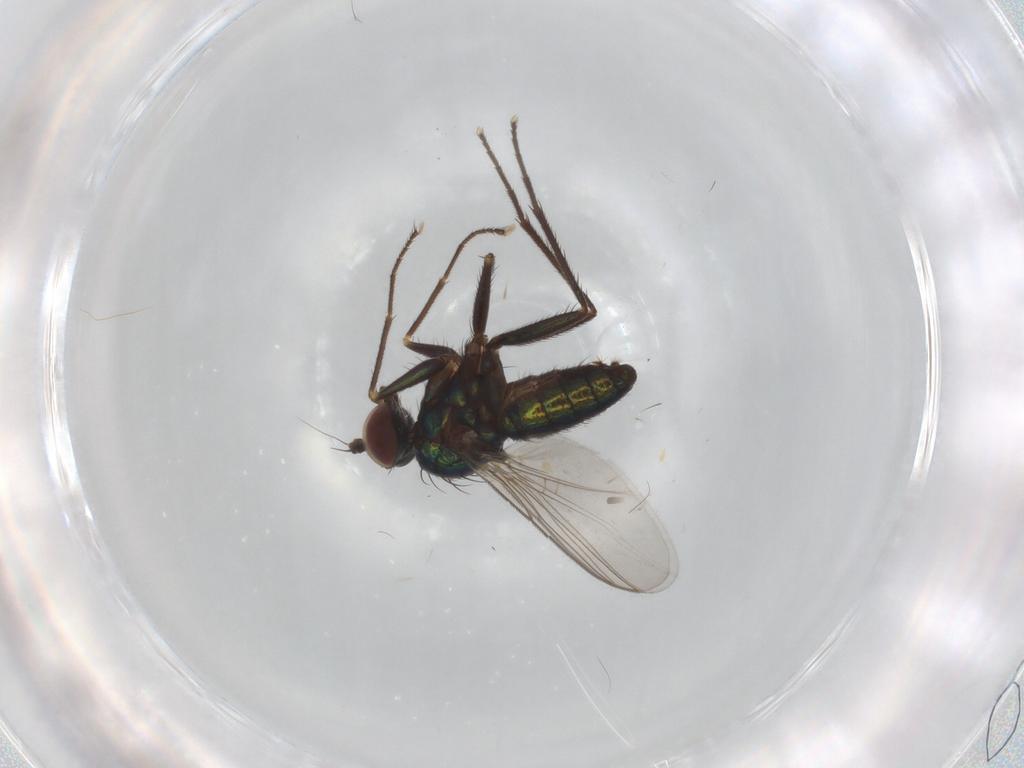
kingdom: Animalia
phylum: Arthropoda
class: Insecta
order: Diptera
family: Dolichopodidae
